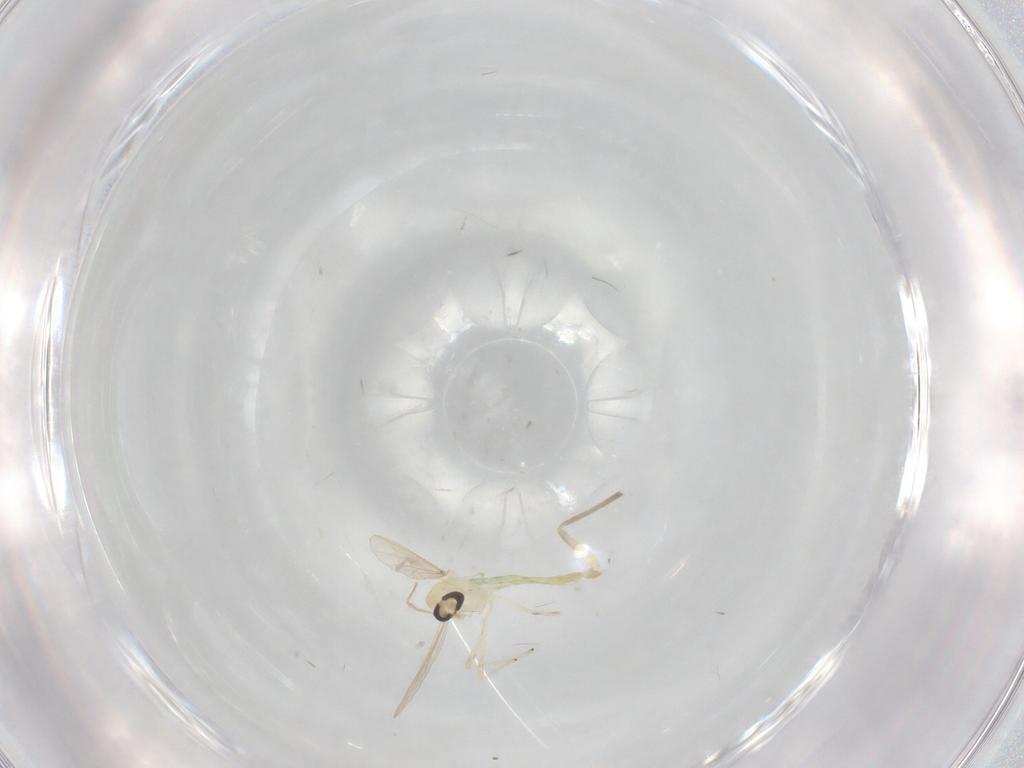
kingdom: Animalia
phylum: Arthropoda
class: Insecta
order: Diptera
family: Chironomidae
